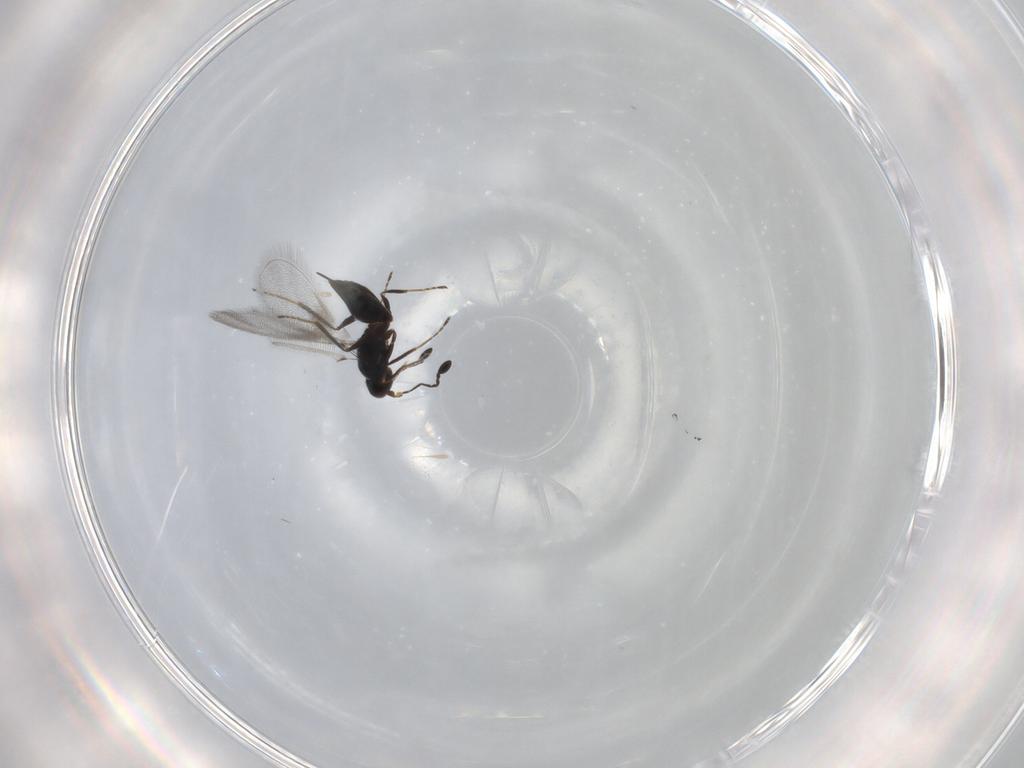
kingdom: Animalia
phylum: Arthropoda
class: Insecta
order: Hymenoptera
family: Mymaridae
